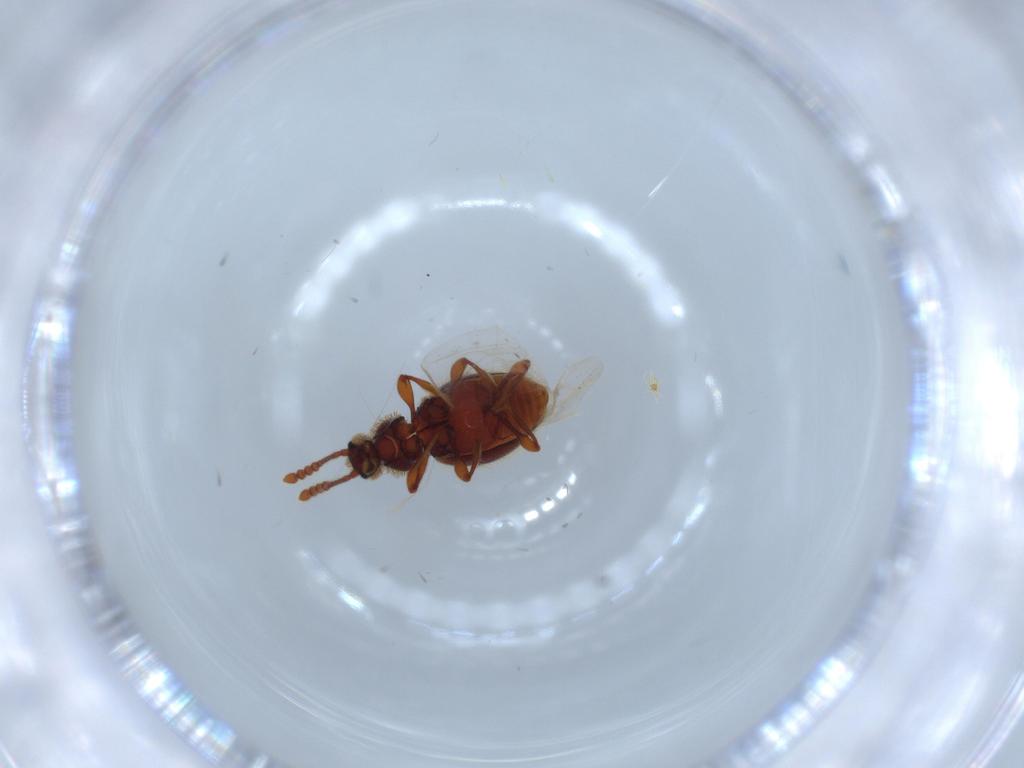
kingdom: Animalia
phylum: Arthropoda
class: Insecta
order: Coleoptera
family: Chrysomelidae
